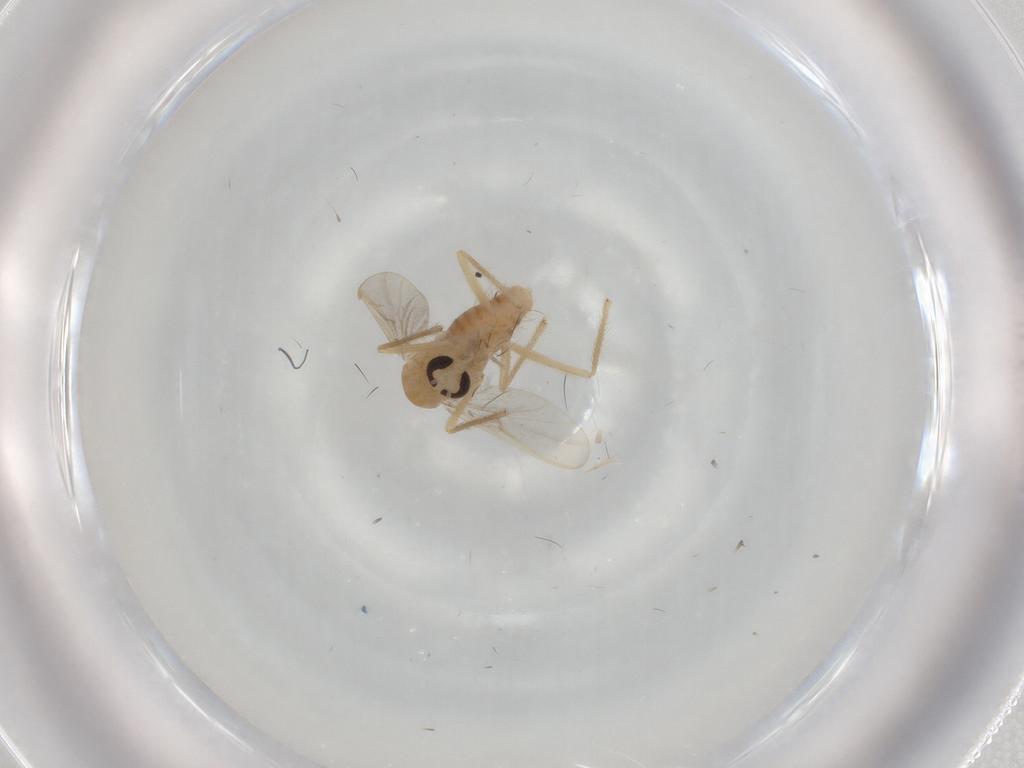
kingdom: Animalia
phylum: Arthropoda
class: Insecta
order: Diptera
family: Chironomidae
